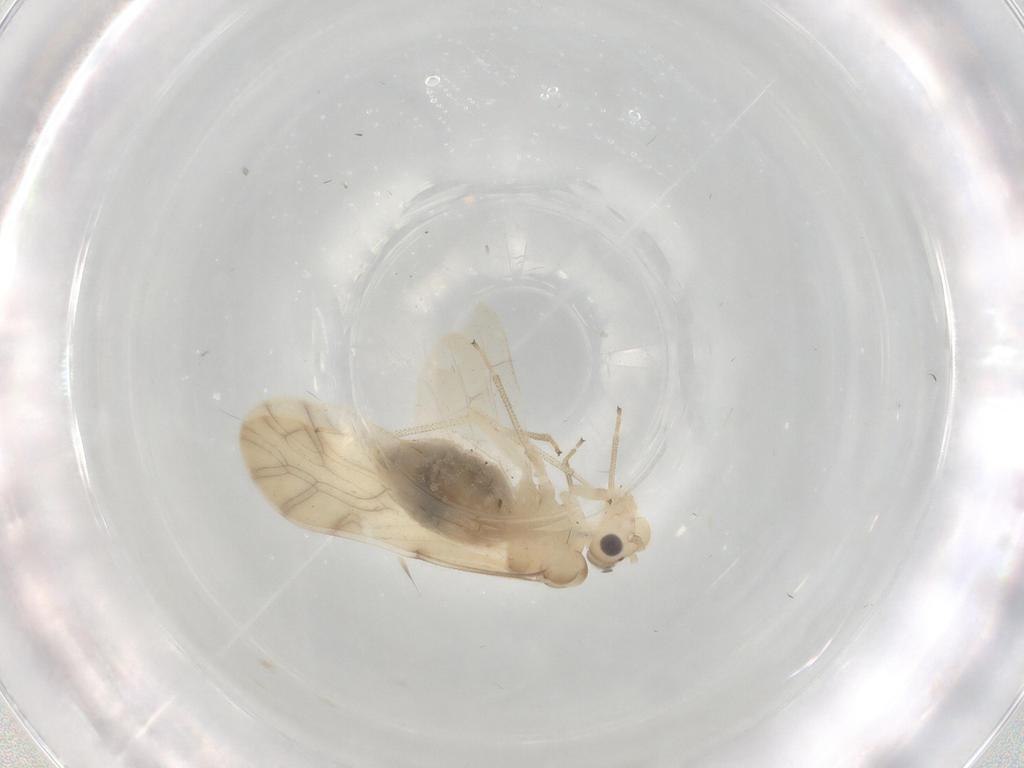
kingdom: Animalia
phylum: Arthropoda
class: Insecta
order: Psocodea
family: Caeciliusidae
